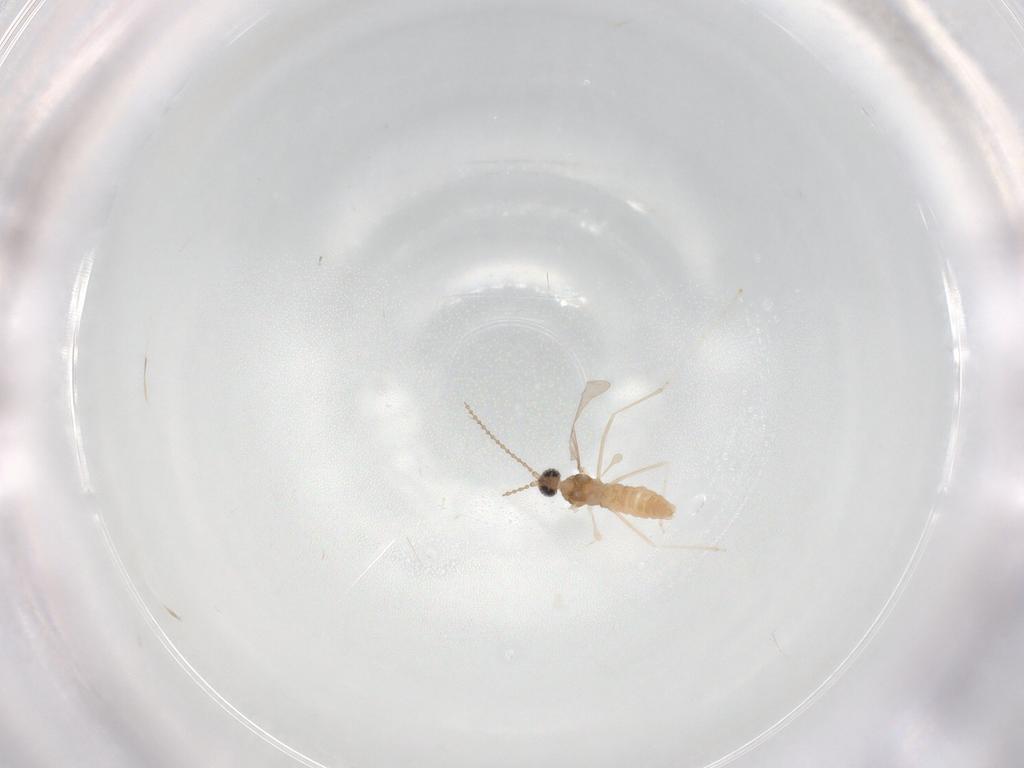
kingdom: Animalia
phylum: Arthropoda
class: Insecta
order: Diptera
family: Cecidomyiidae
